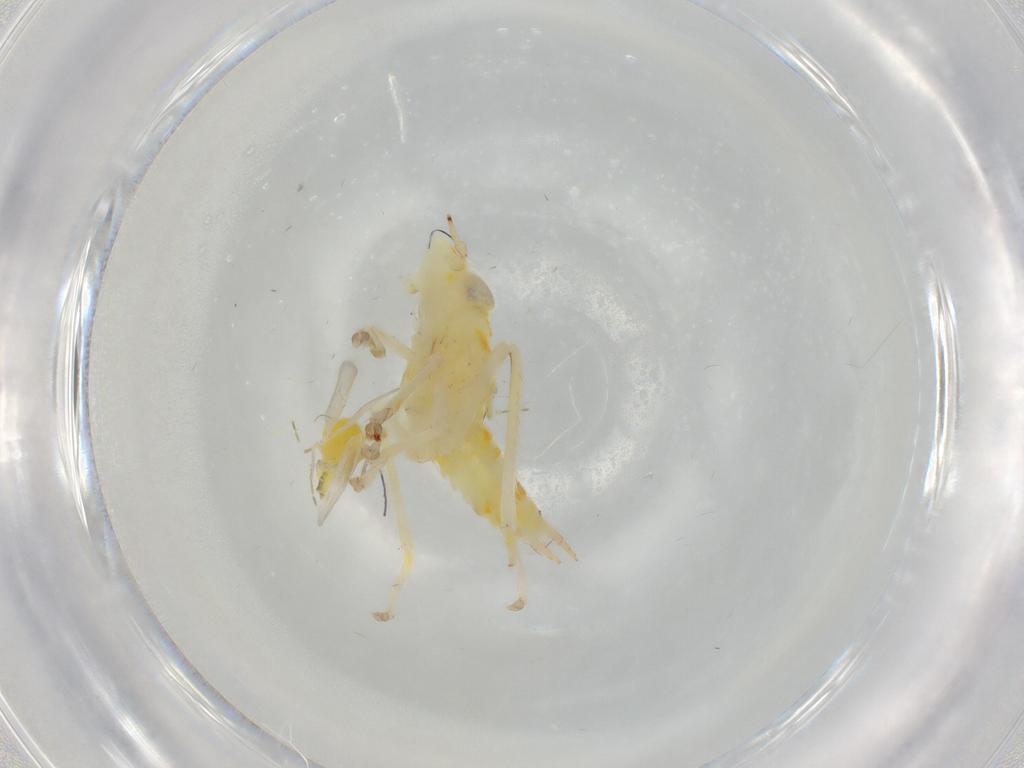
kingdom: Animalia
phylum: Arthropoda
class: Insecta
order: Hemiptera
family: Cicadellidae
